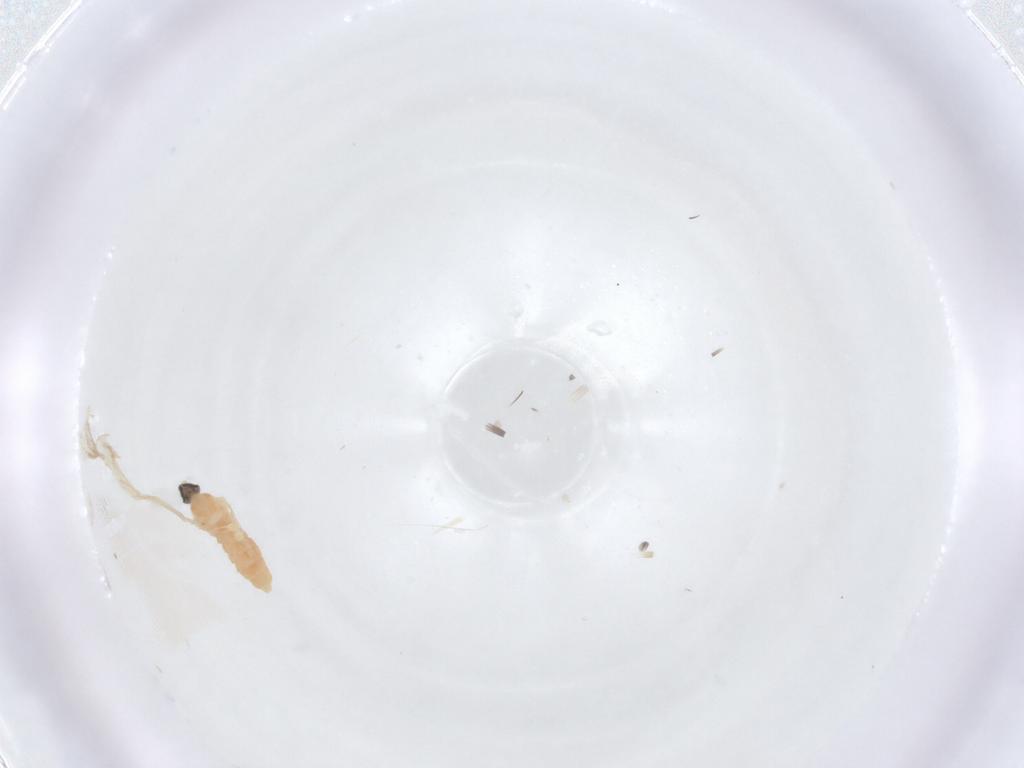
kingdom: Animalia
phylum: Arthropoda
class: Insecta
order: Diptera
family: Cecidomyiidae
